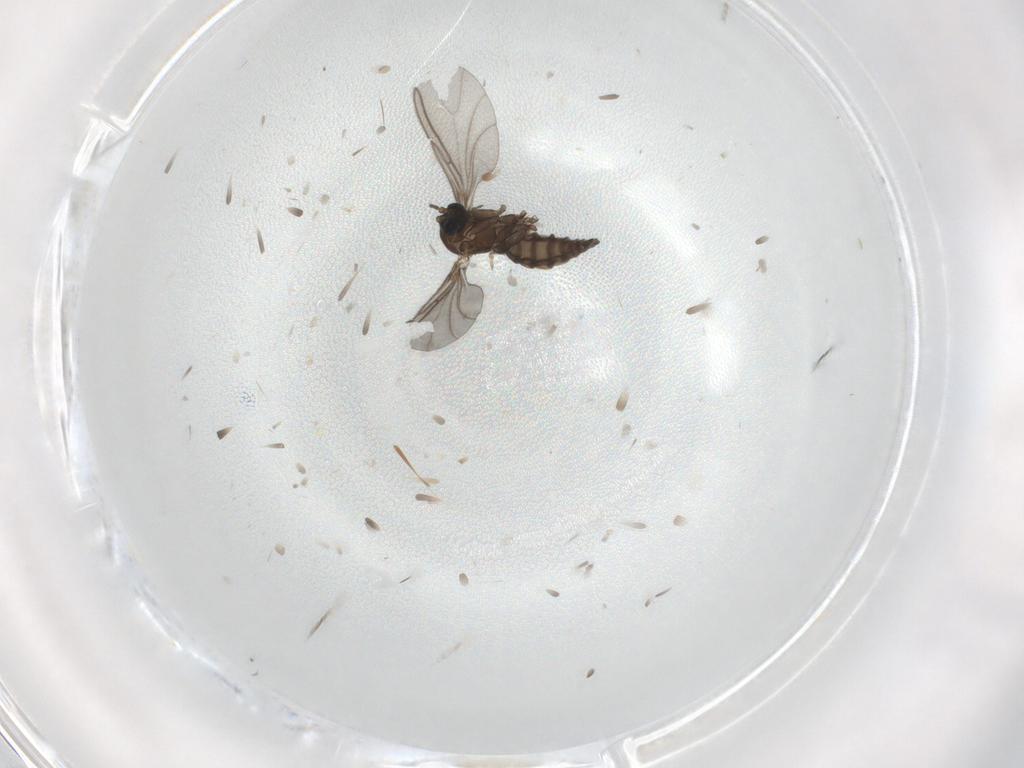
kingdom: Animalia
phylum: Arthropoda
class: Insecta
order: Diptera
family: Sciaridae
